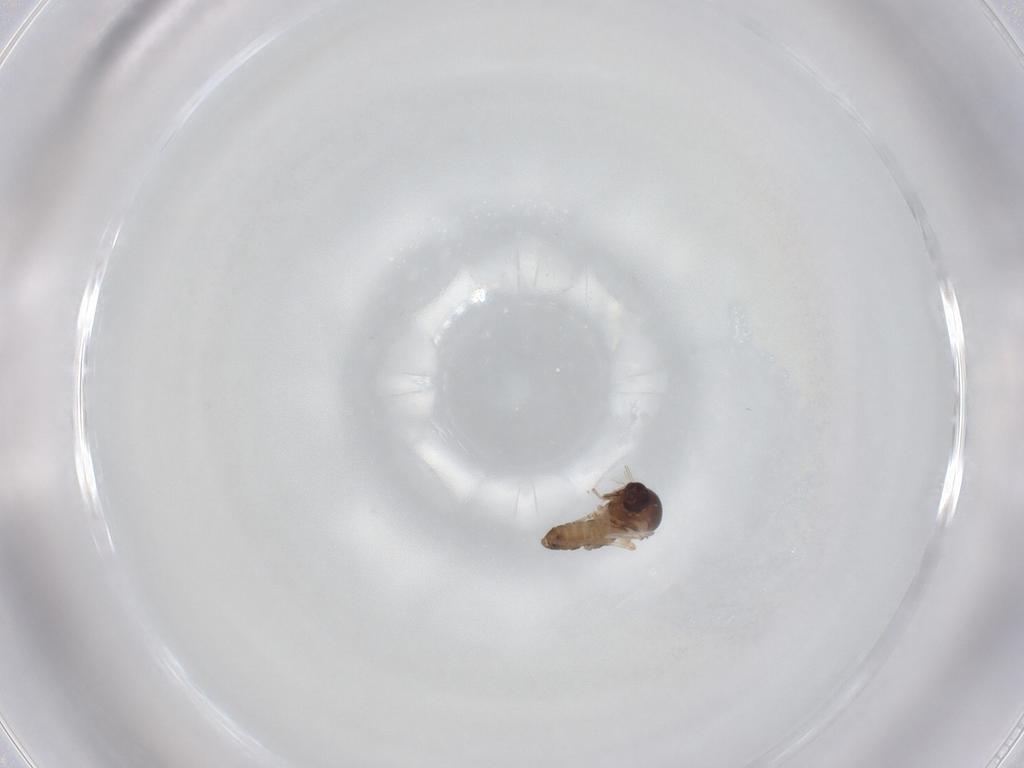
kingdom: Animalia
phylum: Arthropoda
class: Insecta
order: Diptera
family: Ceratopogonidae
